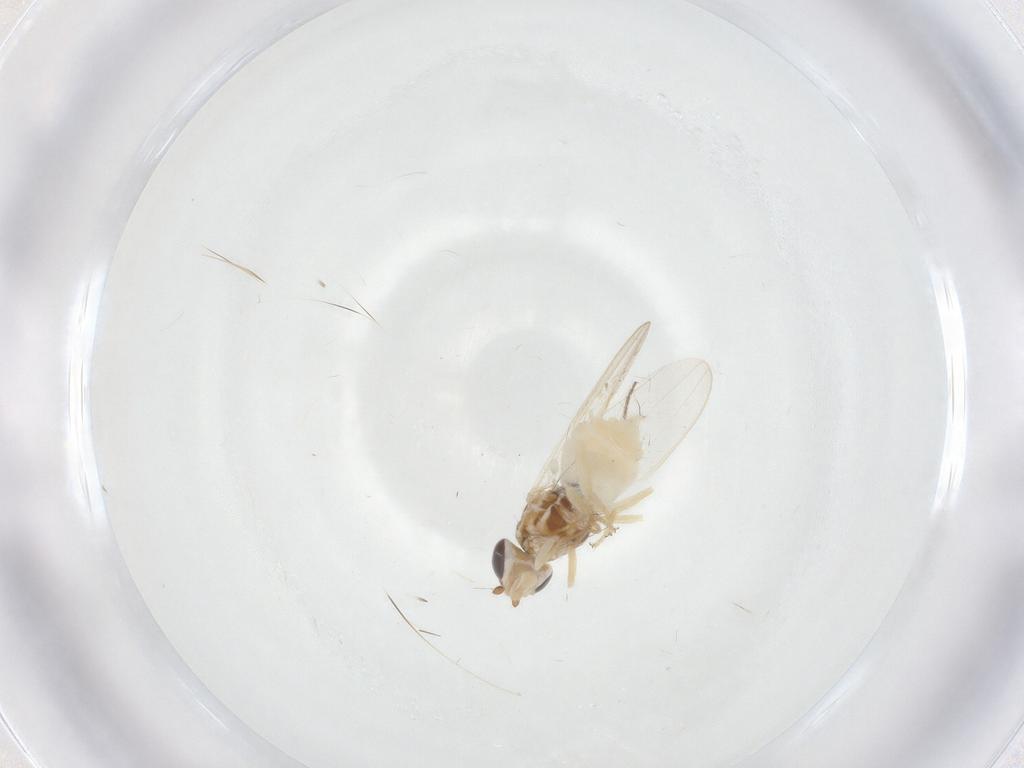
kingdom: Animalia
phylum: Arthropoda
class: Insecta
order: Diptera
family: Chloropidae
